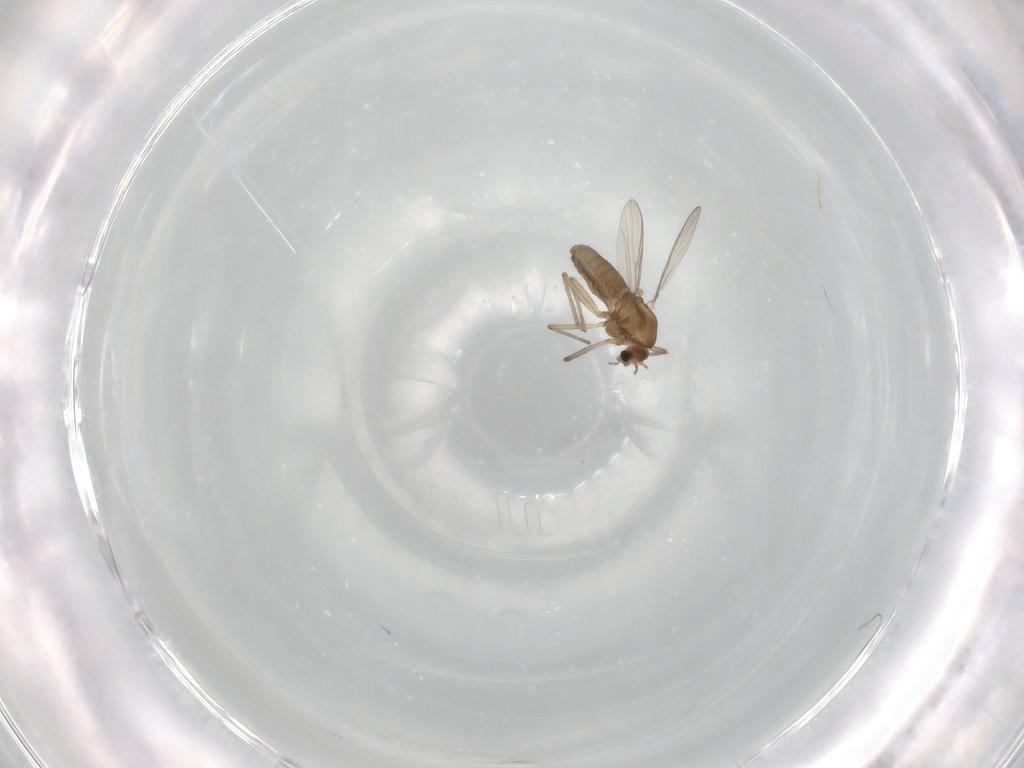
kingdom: Animalia
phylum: Arthropoda
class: Insecta
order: Diptera
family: Chironomidae
